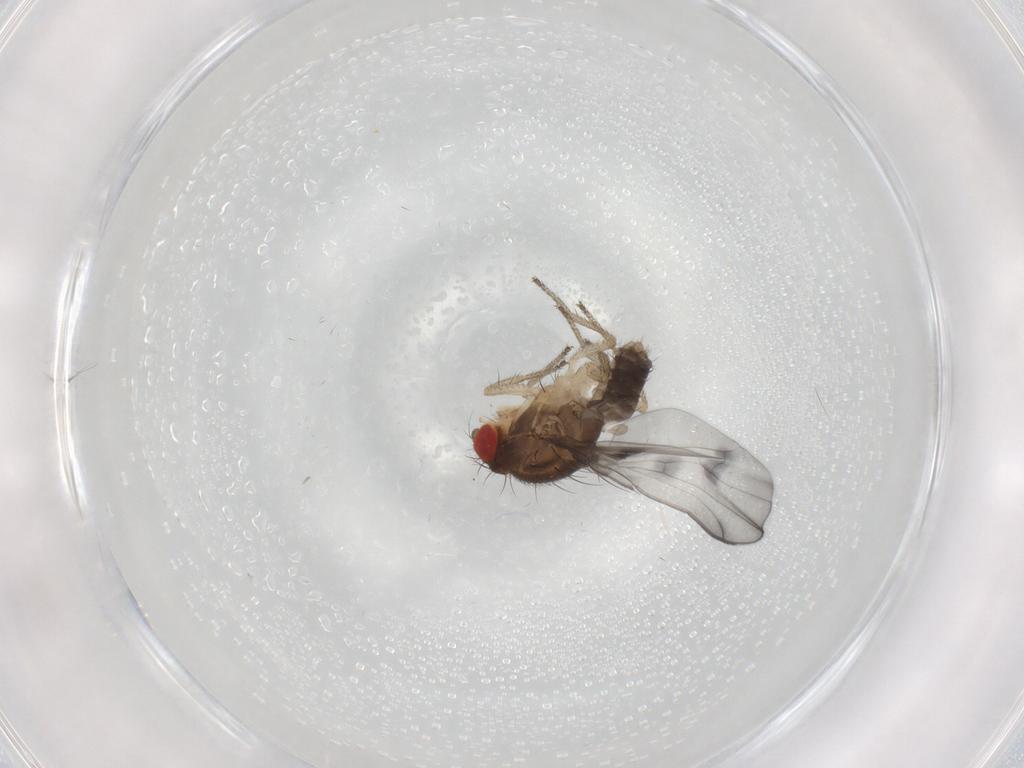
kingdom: Animalia
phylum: Arthropoda
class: Insecta
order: Diptera
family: Drosophilidae
